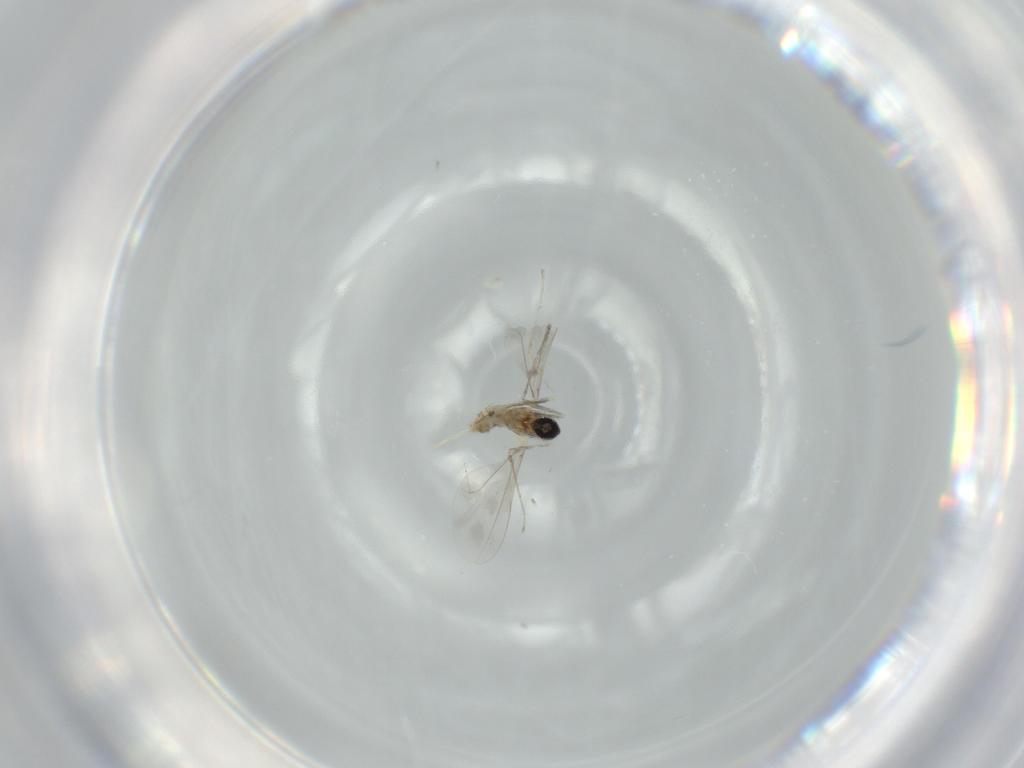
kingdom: Animalia
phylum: Arthropoda
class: Insecta
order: Diptera
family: Cecidomyiidae
